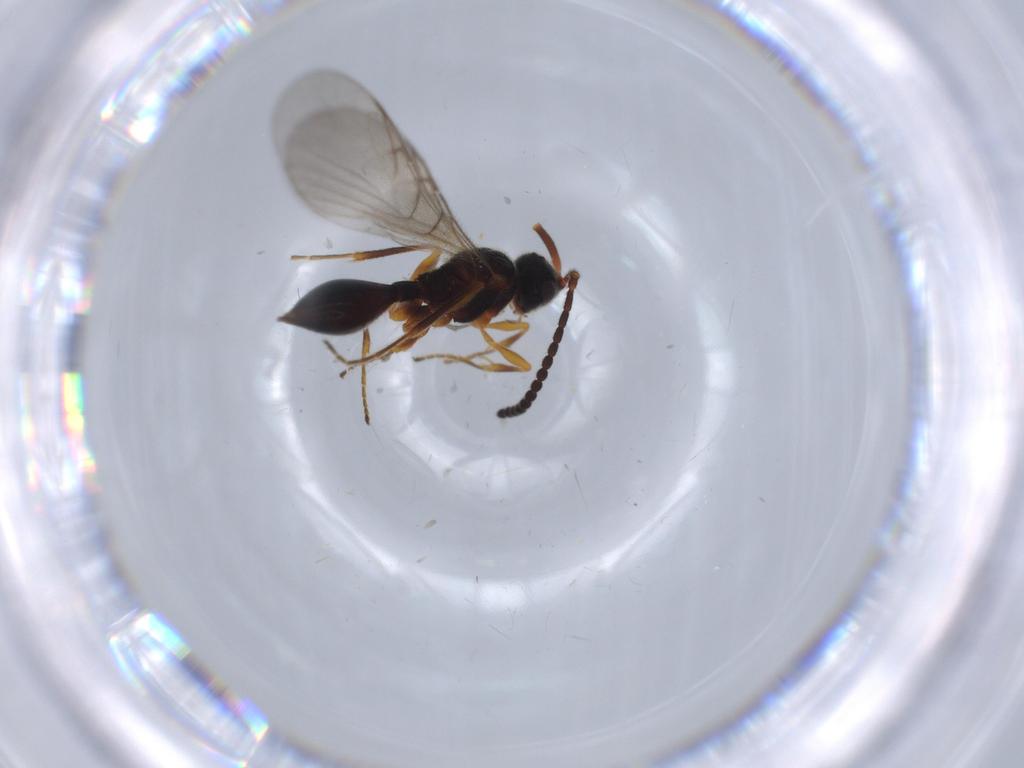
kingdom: Animalia
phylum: Arthropoda
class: Insecta
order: Hymenoptera
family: Diapriidae
